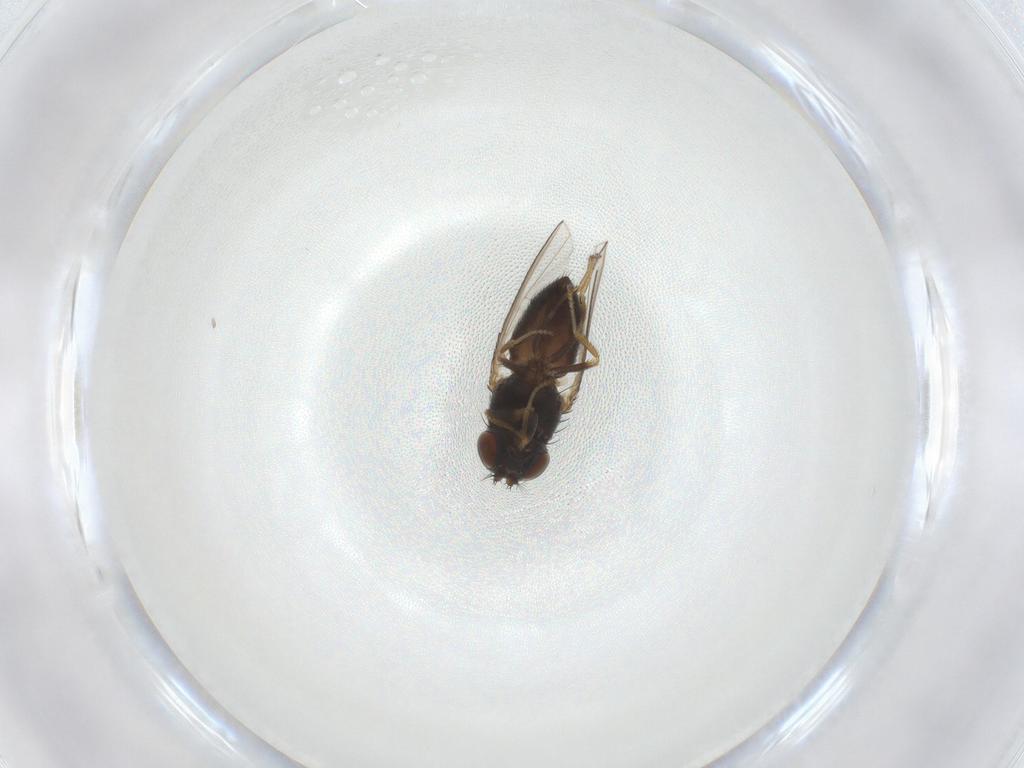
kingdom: Animalia
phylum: Arthropoda
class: Insecta
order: Diptera
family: Ephydridae
